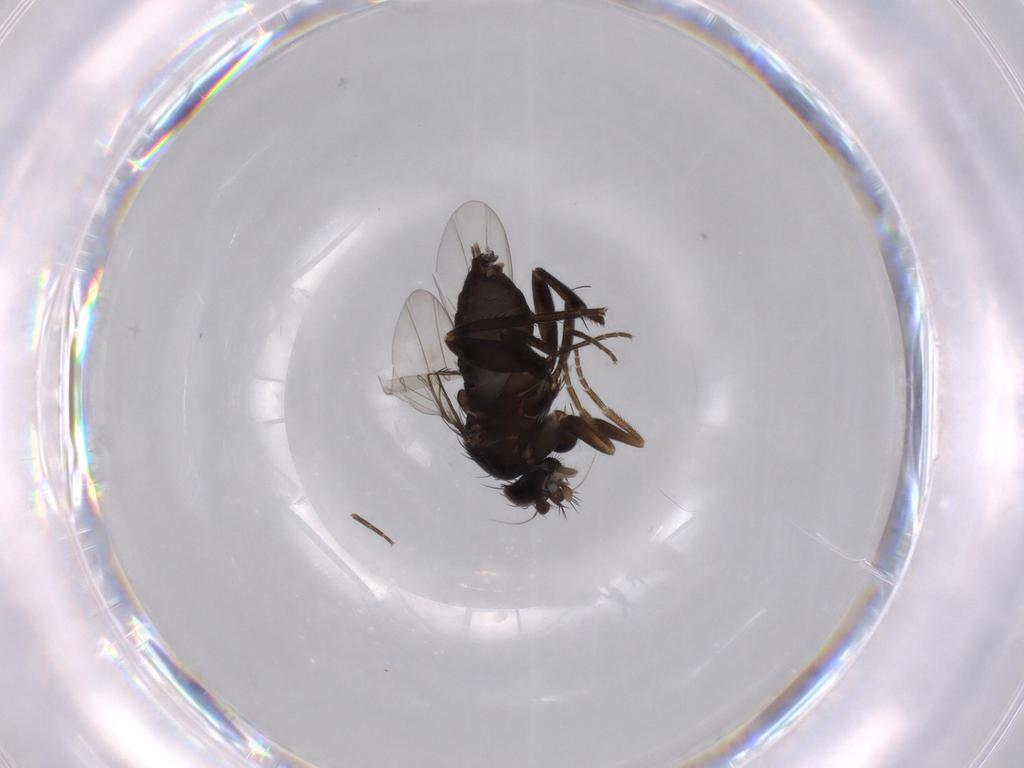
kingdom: Animalia
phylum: Arthropoda
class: Insecta
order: Diptera
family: Phoridae
